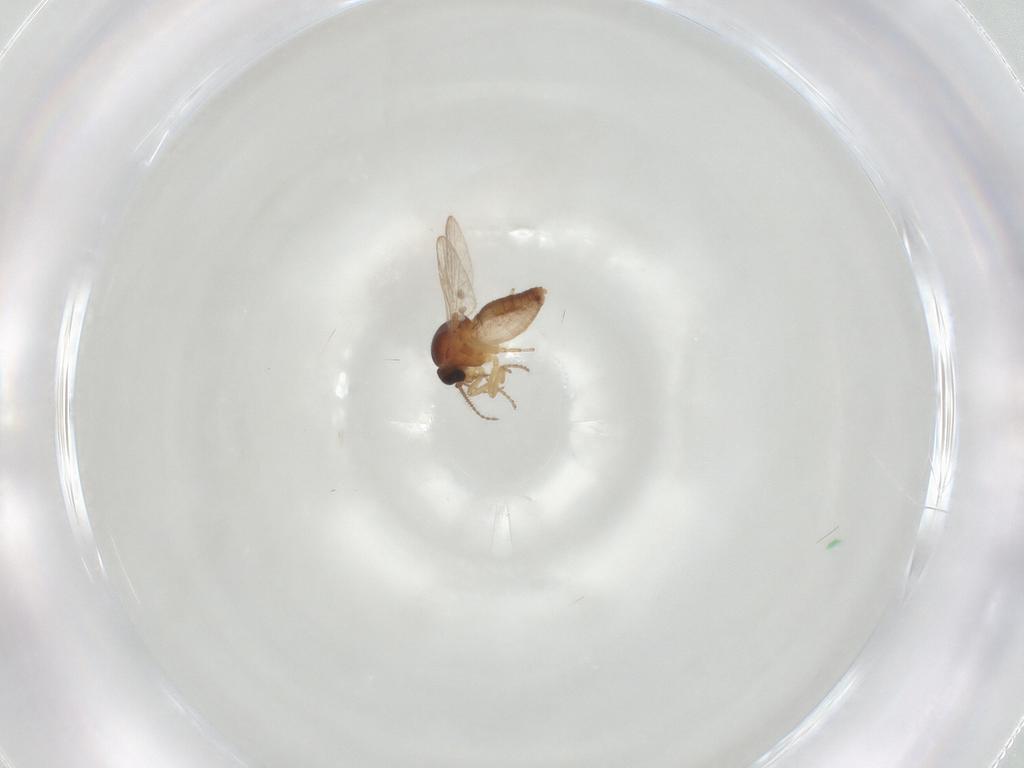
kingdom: Animalia
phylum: Arthropoda
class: Insecta
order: Diptera
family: Ceratopogonidae
